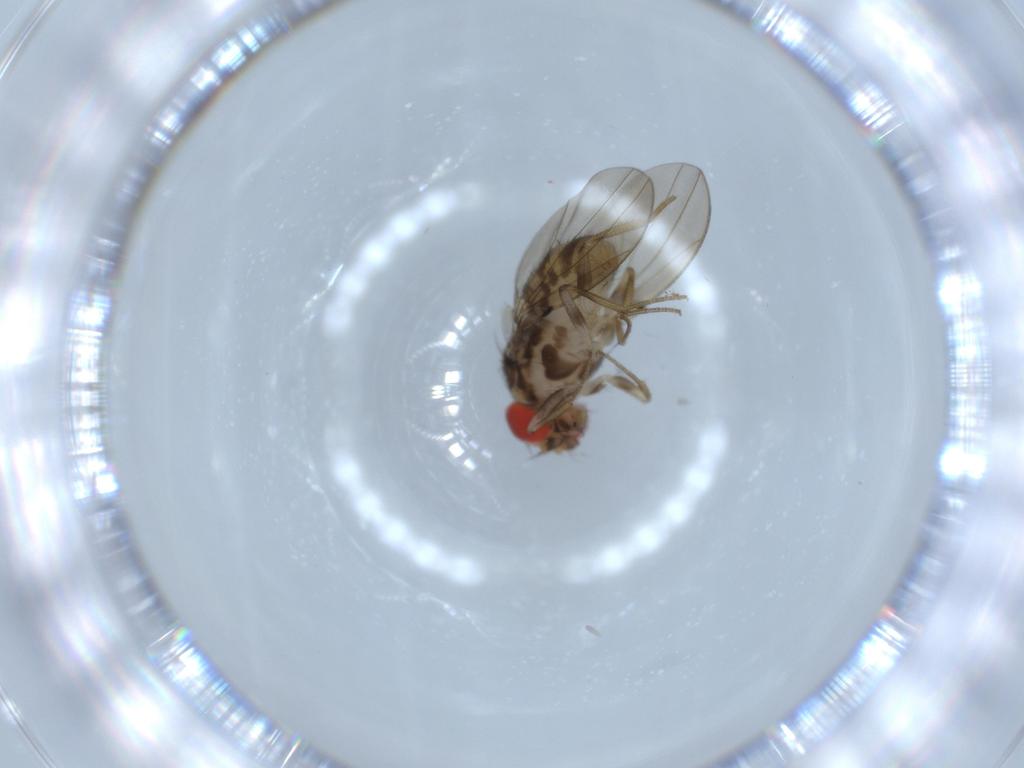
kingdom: Animalia
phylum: Arthropoda
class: Insecta
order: Diptera
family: Drosophilidae
